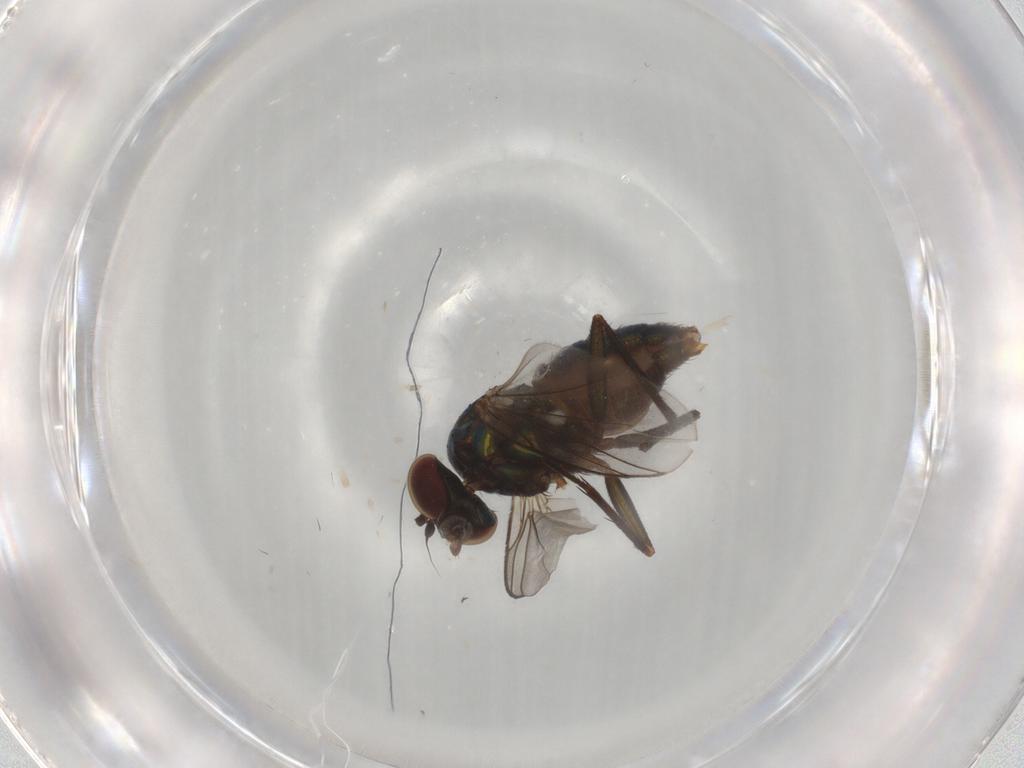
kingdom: Animalia
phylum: Arthropoda
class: Insecta
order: Diptera
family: Dolichopodidae
